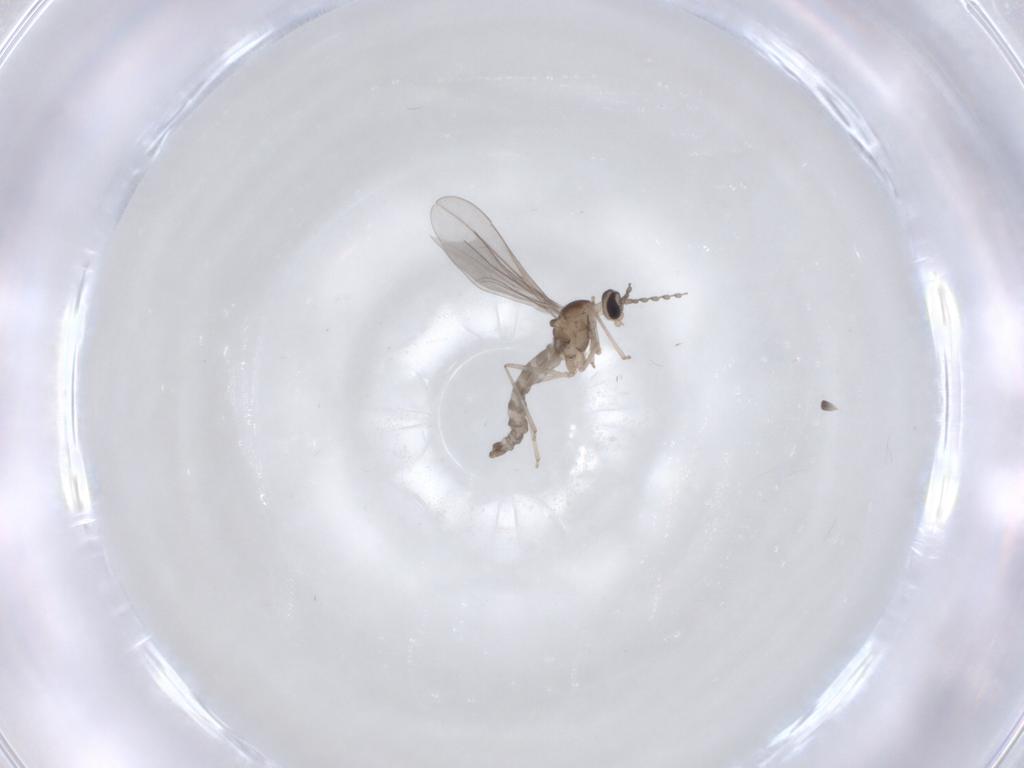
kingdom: Animalia
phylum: Arthropoda
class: Insecta
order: Diptera
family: Cecidomyiidae
